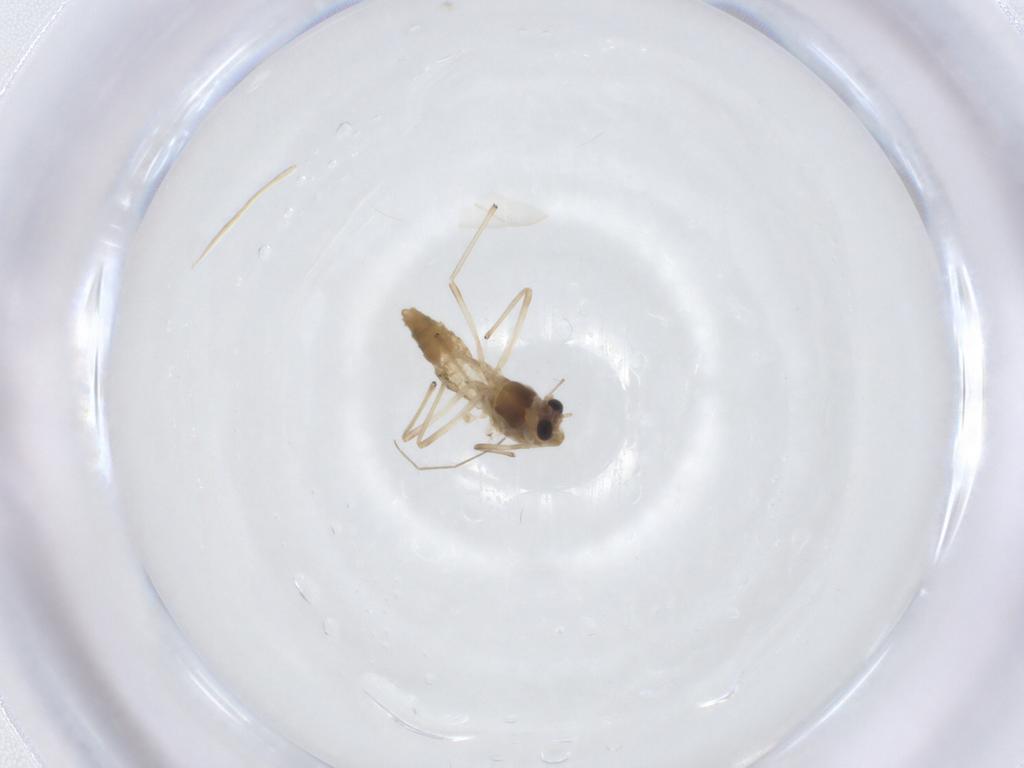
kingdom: Animalia
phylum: Arthropoda
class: Insecta
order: Diptera
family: Chironomidae
